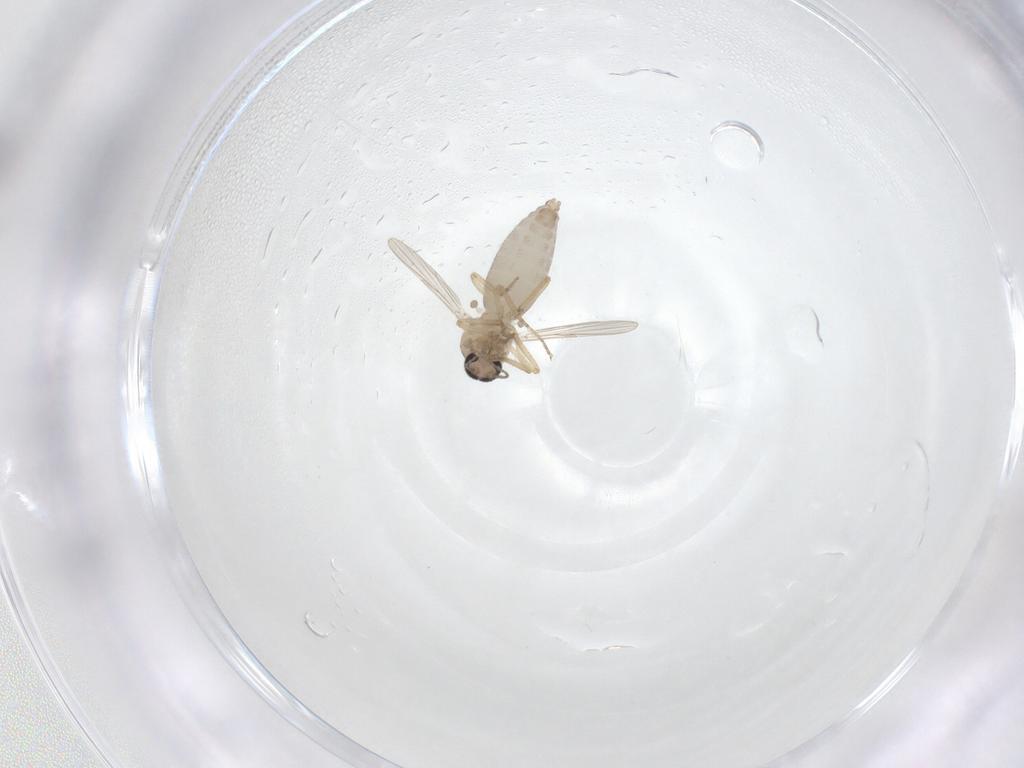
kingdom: Animalia
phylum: Arthropoda
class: Insecta
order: Diptera
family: Ceratopogonidae
